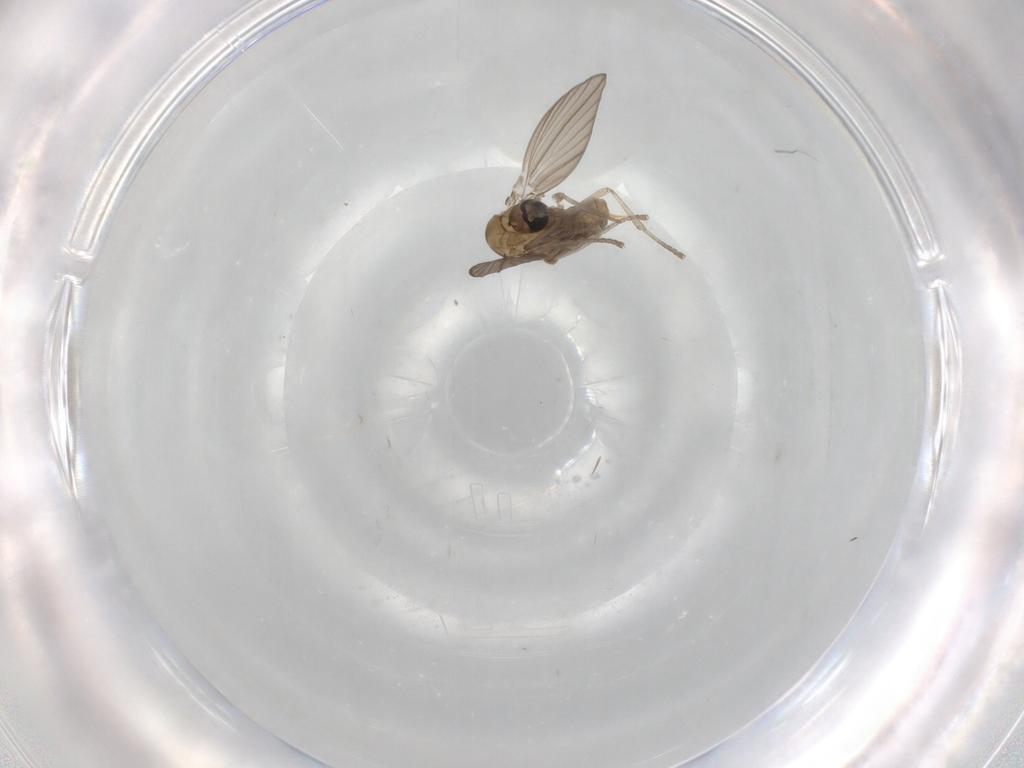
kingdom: Animalia
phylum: Arthropoda
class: Insecta
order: Diptera
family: Psychodidae
